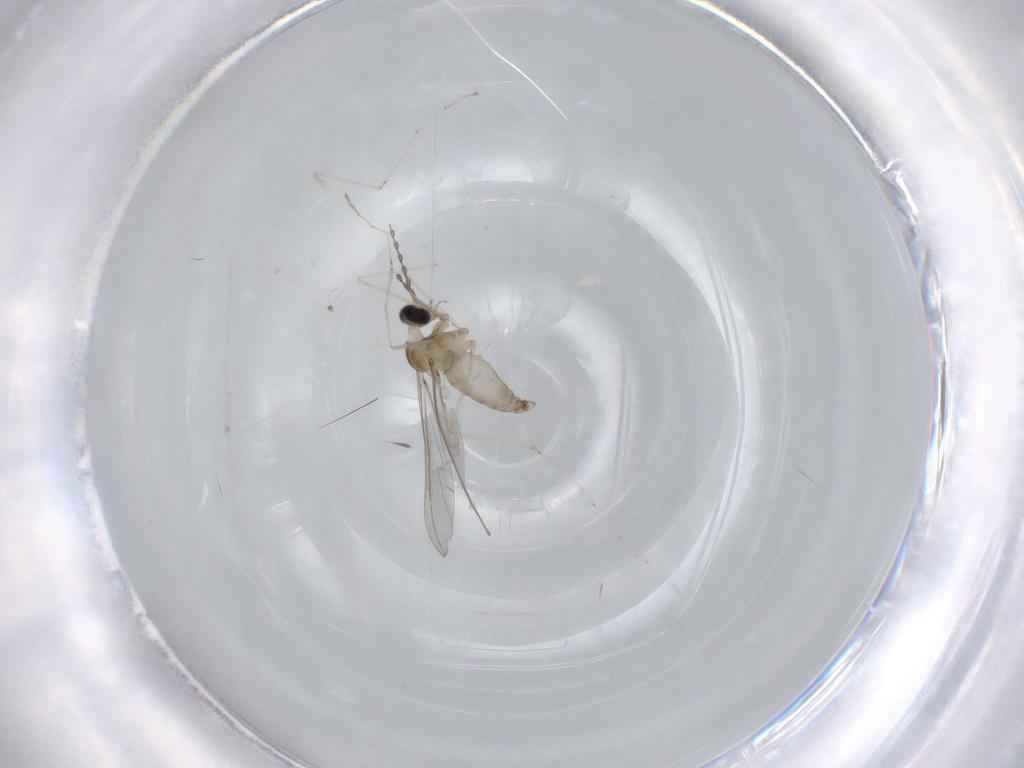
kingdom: Animalia
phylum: Arthropoda
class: Insecta
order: Diptera
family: Cecidomyiidae
